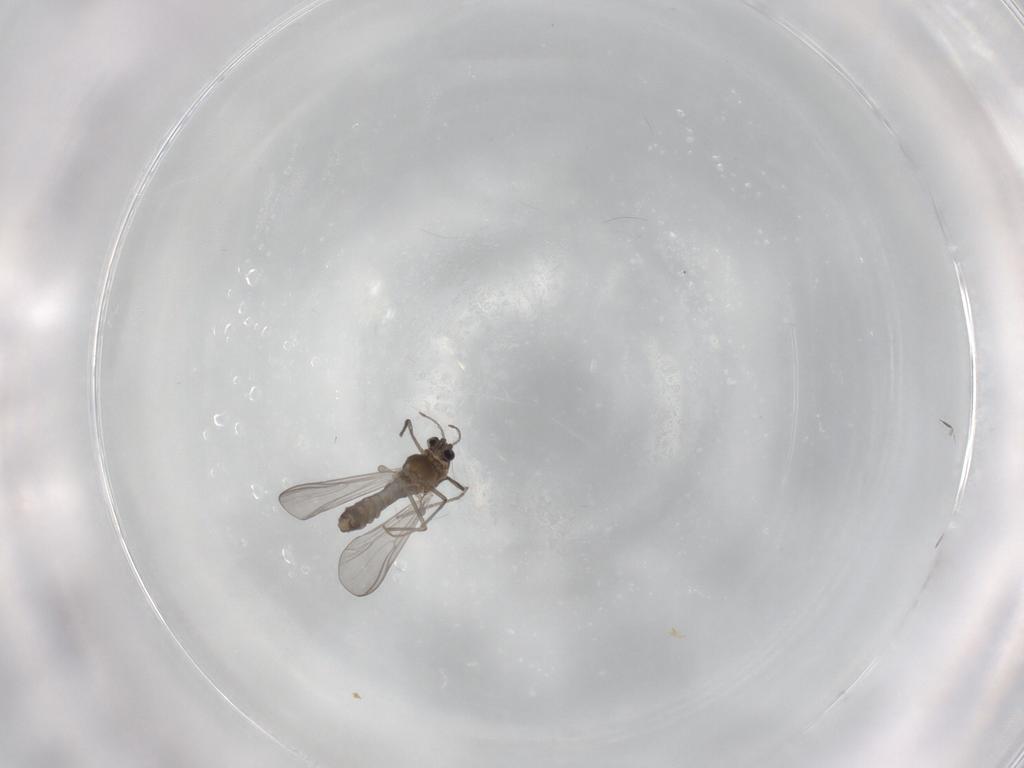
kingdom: Animalia
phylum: Arthropoda
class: Insecta
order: Diptera
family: Chironomidae
